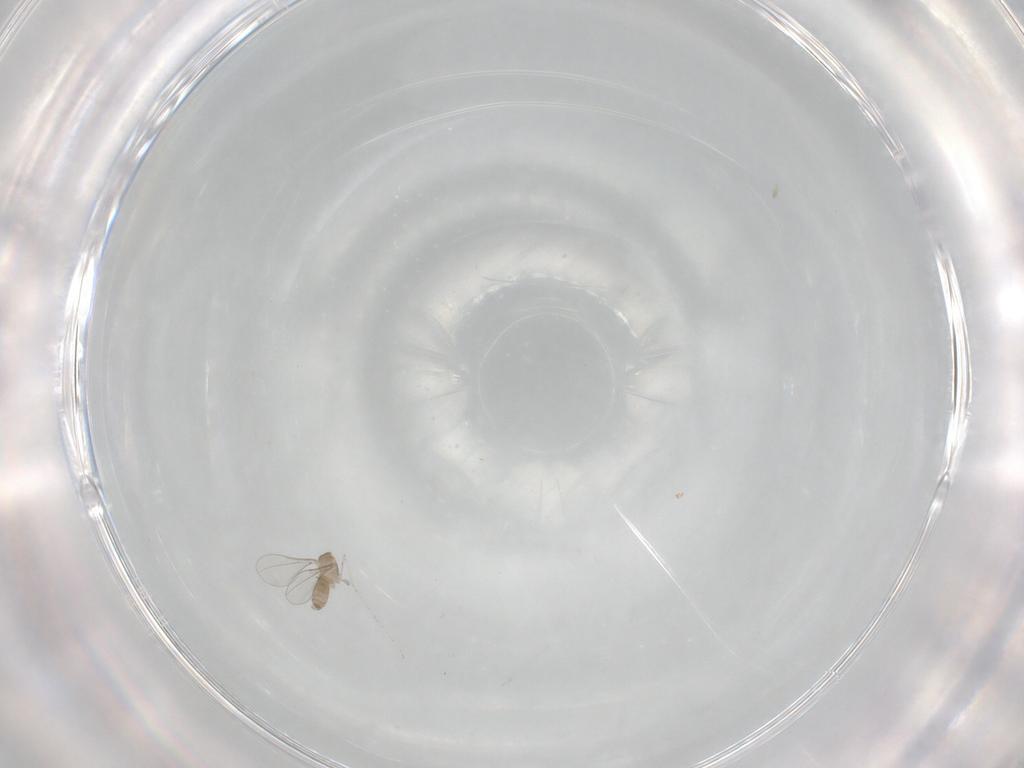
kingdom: Animalia
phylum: Arthropoda
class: Insecta
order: Diptera
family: Cecidomyiidae
